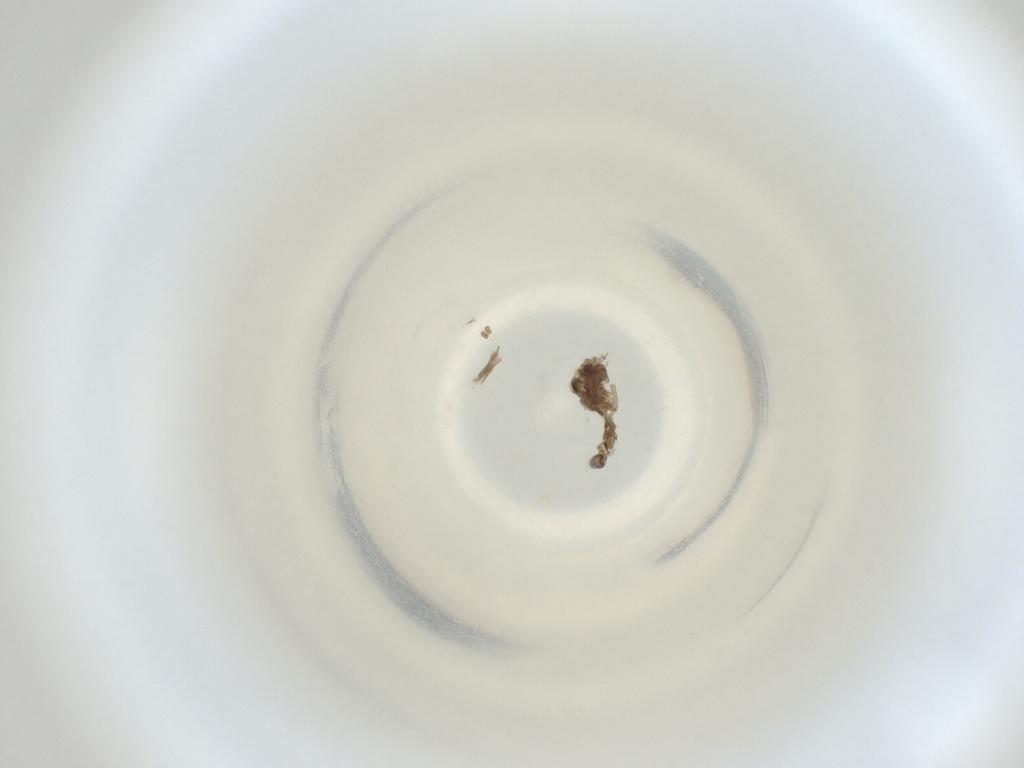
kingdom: Animalia
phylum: Arthropoda
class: Insecta
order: Diptera
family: Cecidomyiidae
